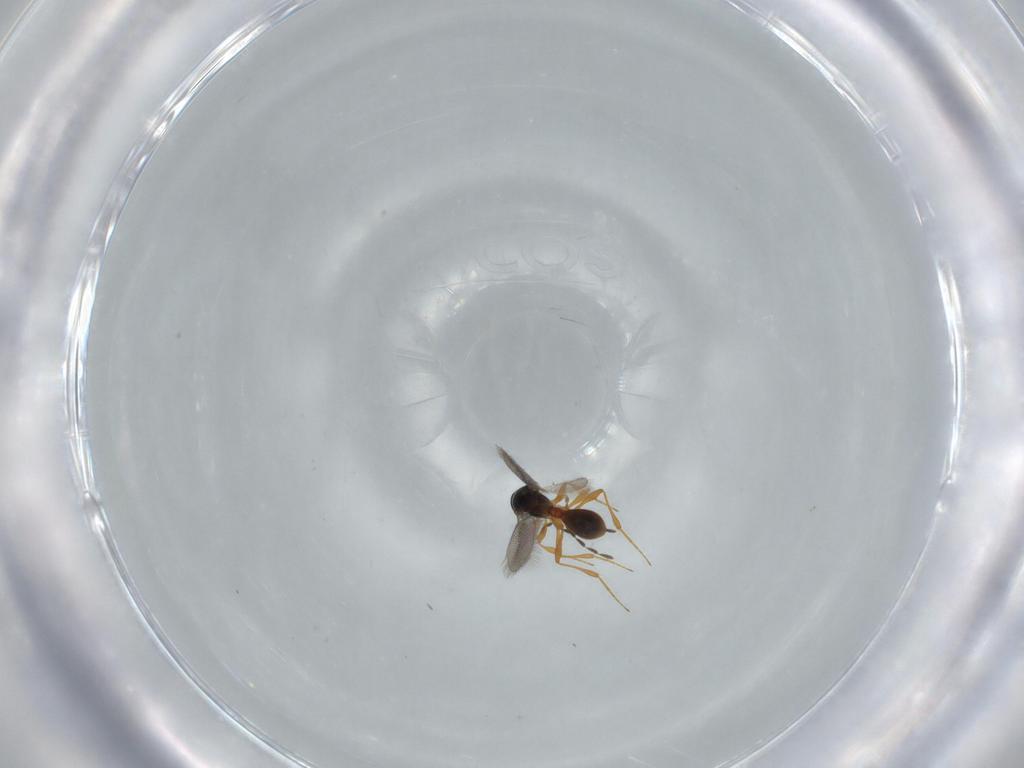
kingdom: Animalia
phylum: Arthropoda
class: Insecta
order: Hymenoptera
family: Platygastridae
